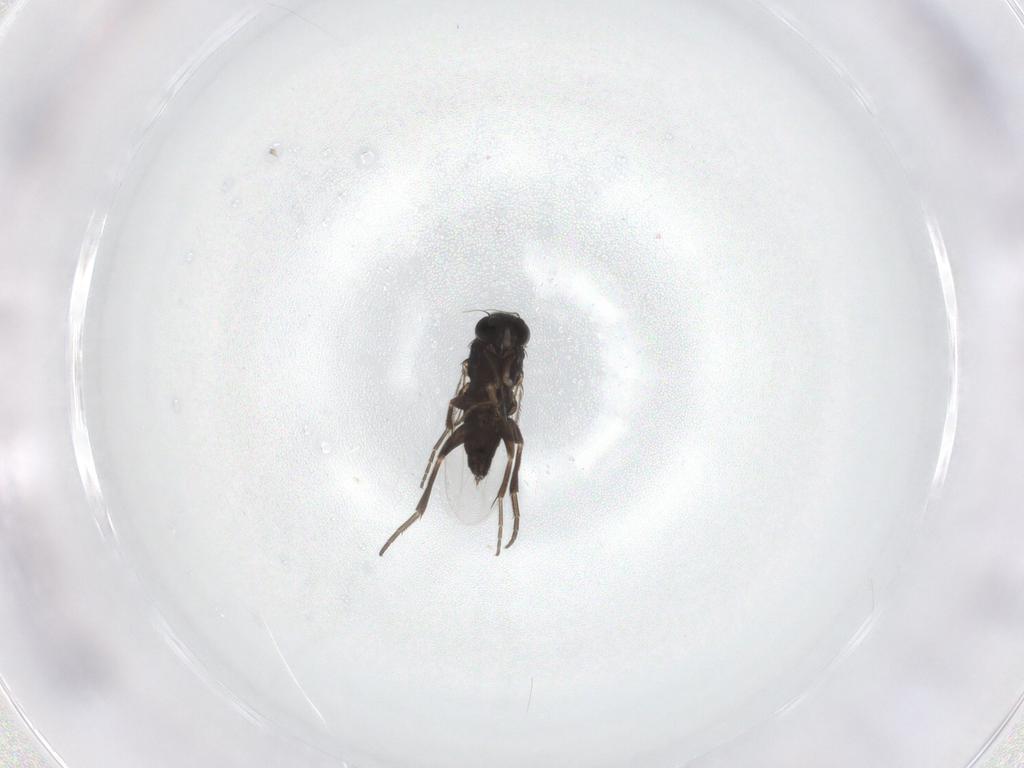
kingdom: Animalia
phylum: Arthropoda
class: Insecta
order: Diptera
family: Phoridae
